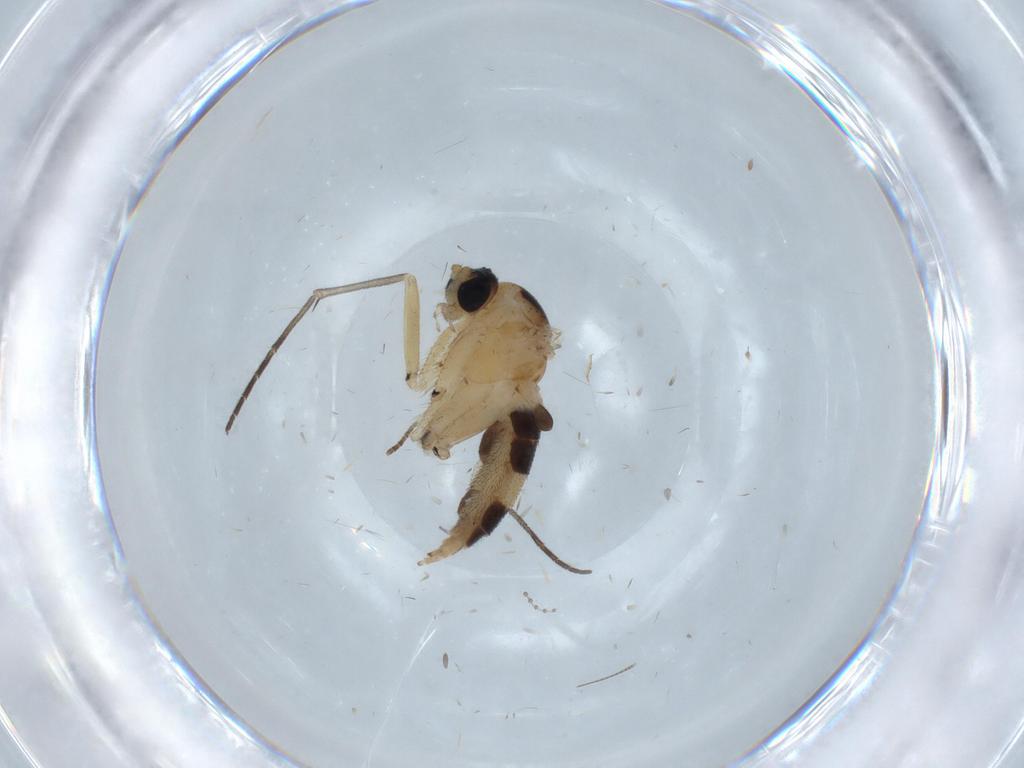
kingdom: Animalia
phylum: Arthropoda
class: Insecta
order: Diptera
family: Sciaridae
